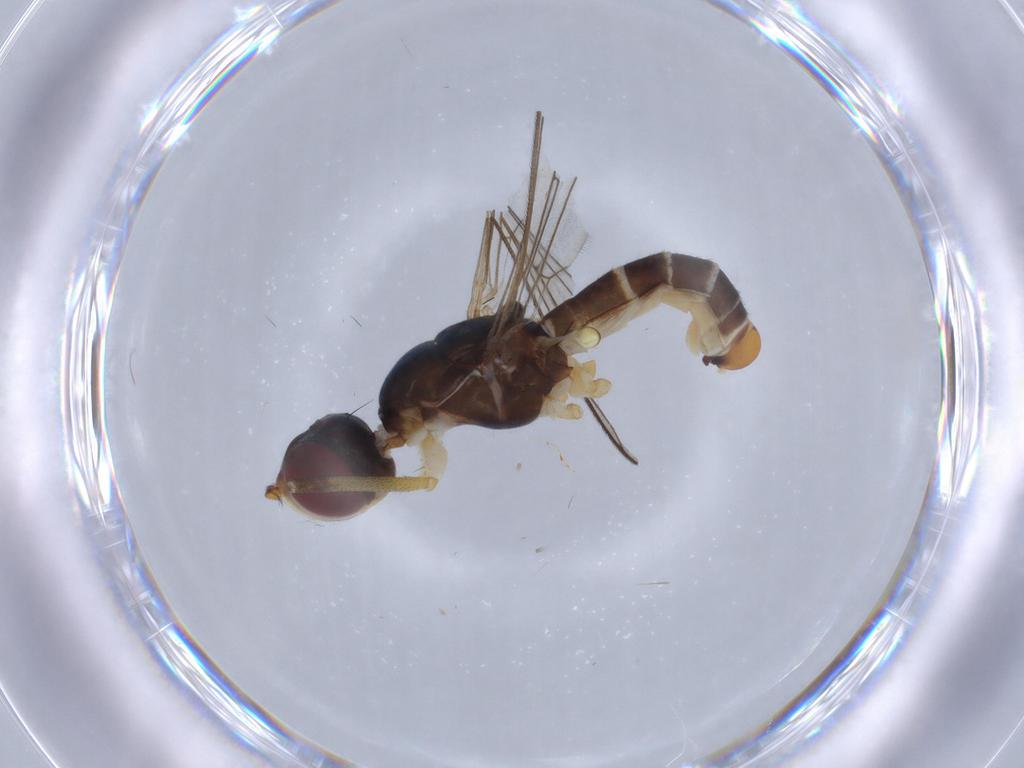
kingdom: Animalia
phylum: Arthropoda
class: Insecta
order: Diptera
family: Micropezidae
